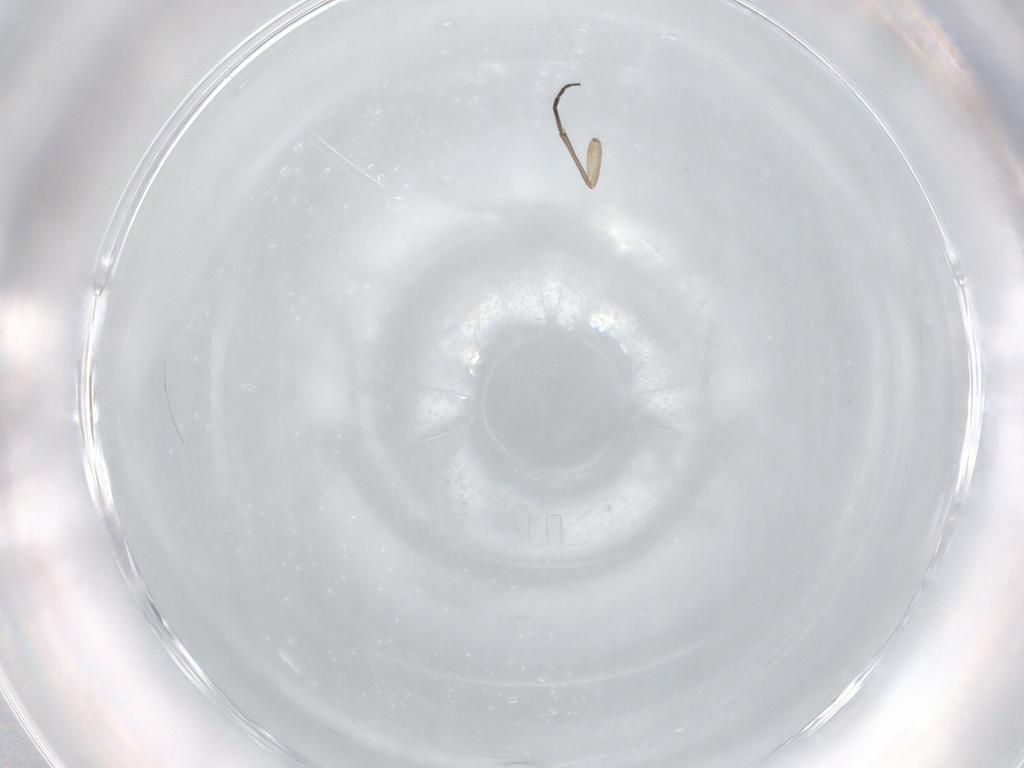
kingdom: Animalia
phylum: Arthropoda
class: Insecta
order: Diptera
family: Sciaridae
